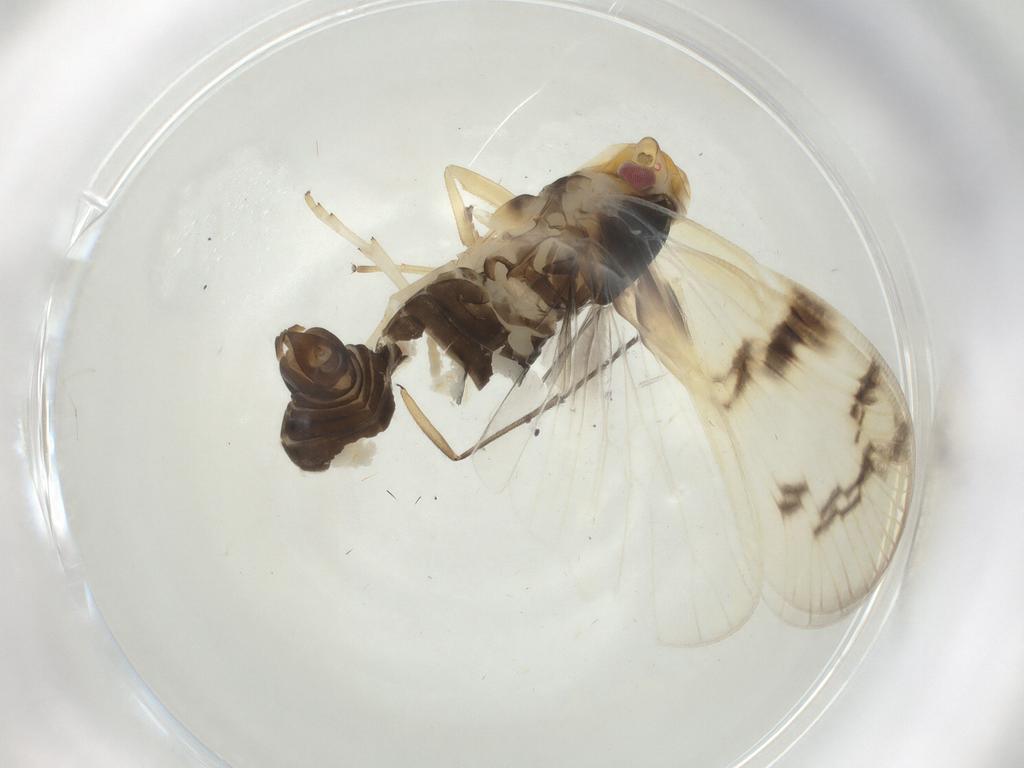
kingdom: Animalia
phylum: Arthropoda
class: Insecta
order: Hemiptera
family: Cixiidae
